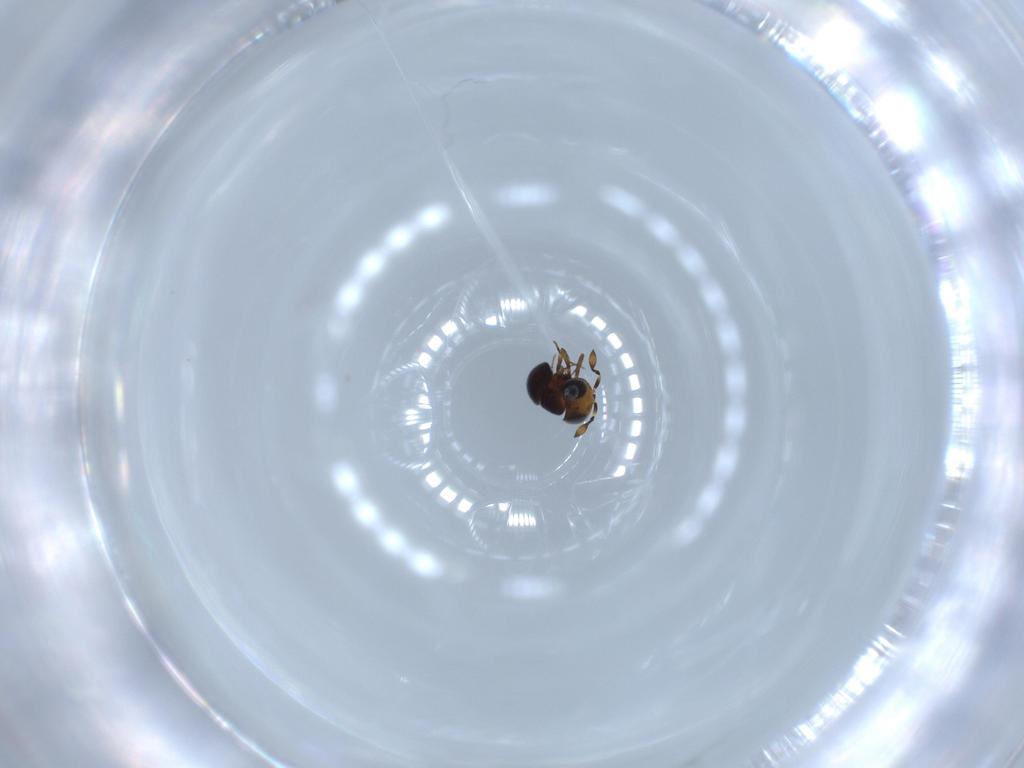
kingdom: Animalia
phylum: Arthropoda
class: Insecta
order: Hymenoptera
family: Scelionidae
